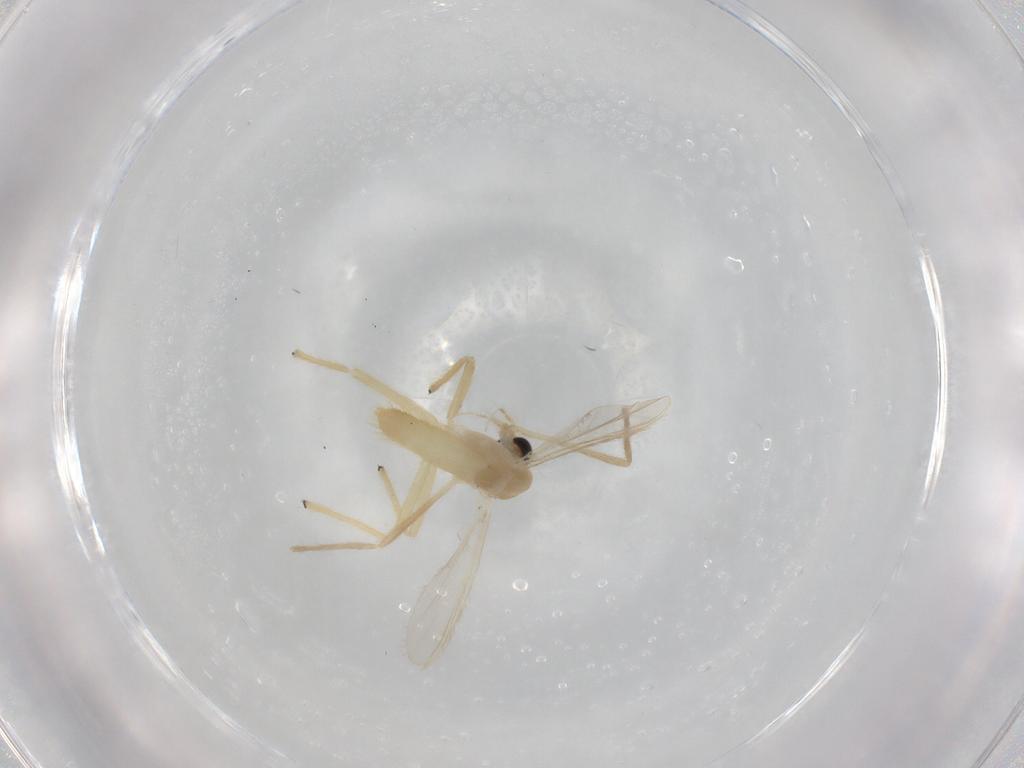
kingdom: Animalia
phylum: Arthropoda
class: Insecta
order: Diptera
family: Chironomidae
